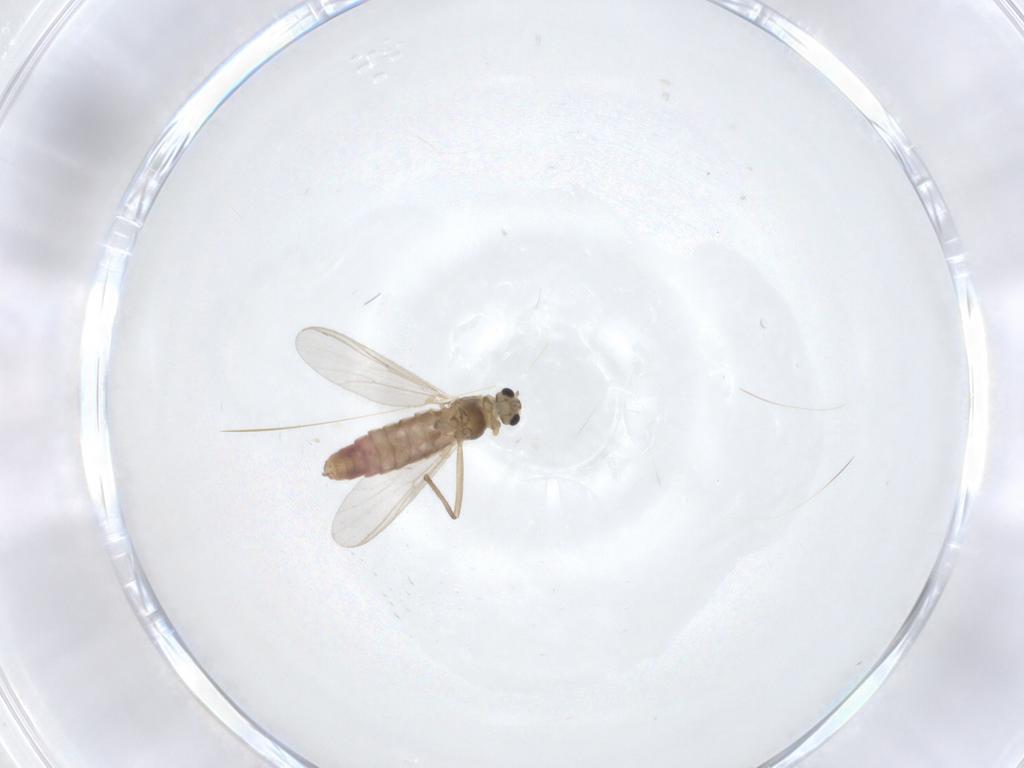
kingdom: Animalia
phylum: Arthropoda
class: Insecta
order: Diptera
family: Chironomidae
